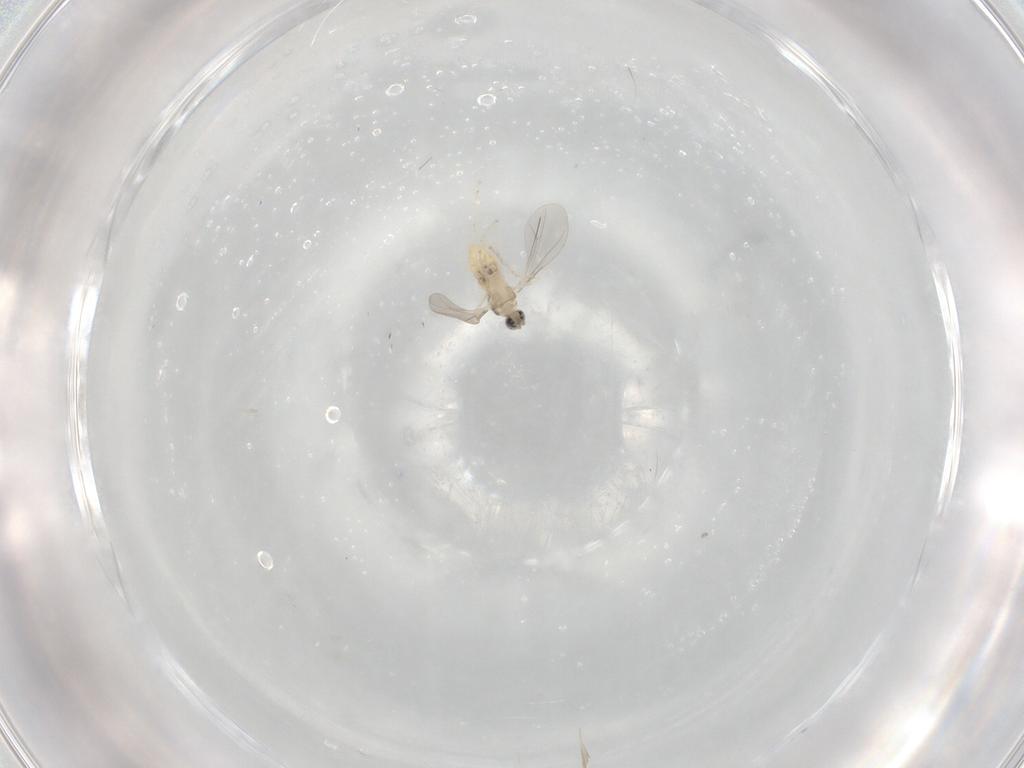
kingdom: Animalia
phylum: Arthropoda
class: Insecta
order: Diptera
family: Cecidomyiidae
